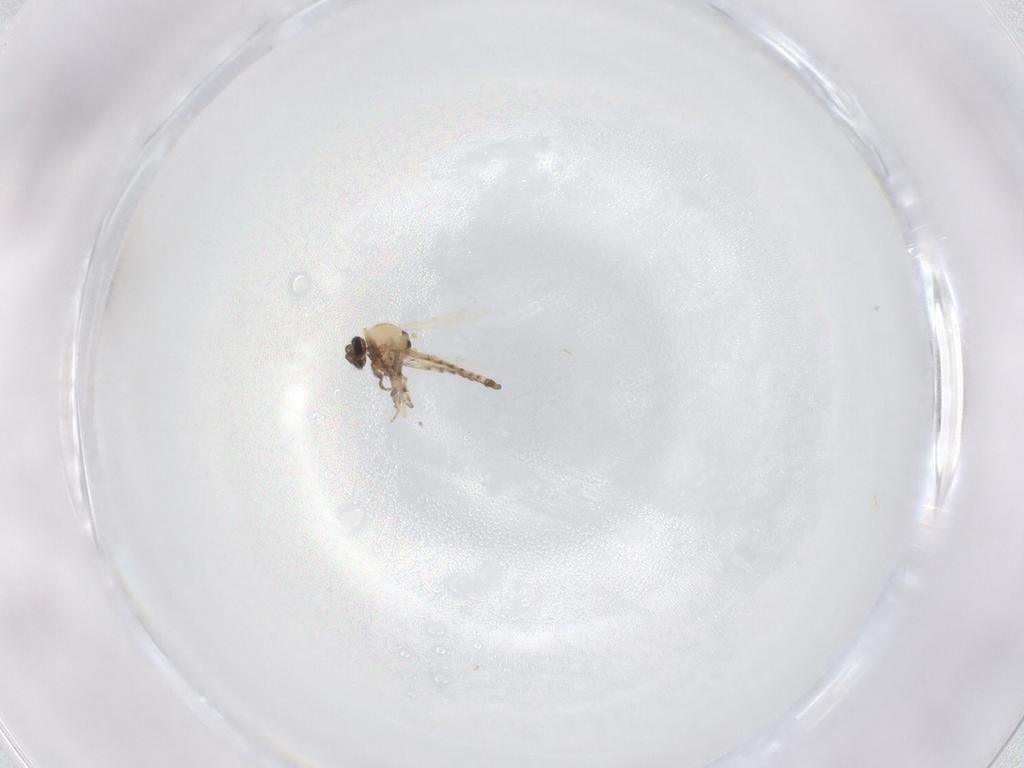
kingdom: Animalia
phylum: Arthropoda
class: Insecta
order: Diptera
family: Ceratopogonidae
